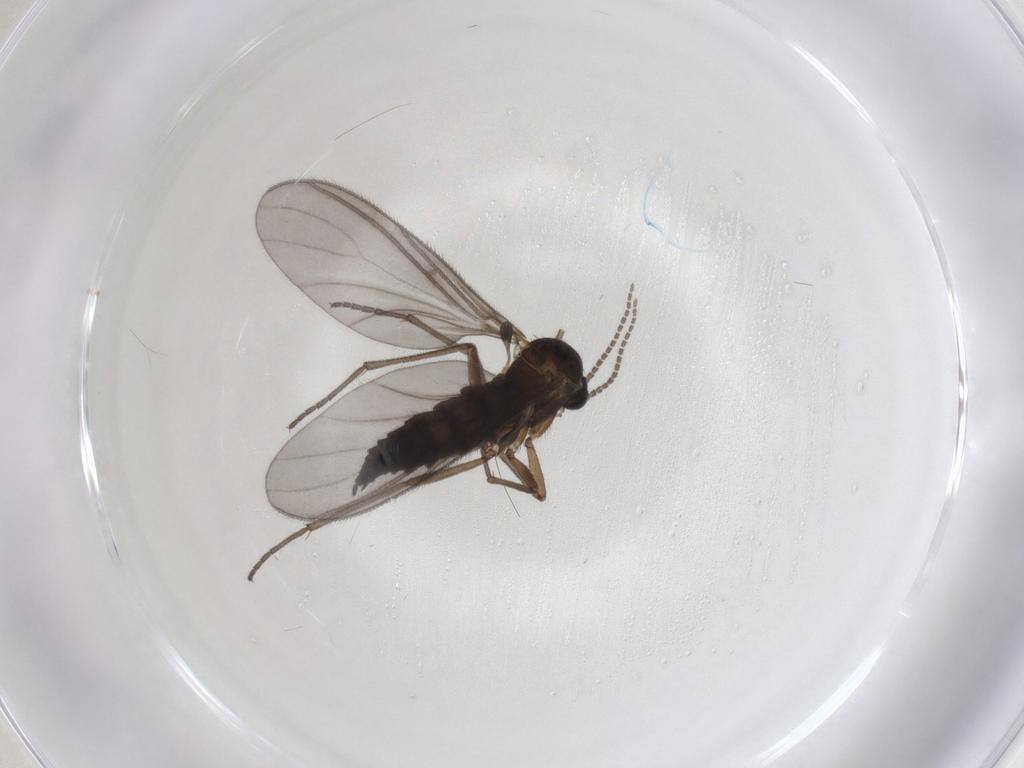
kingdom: Animalia
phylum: Arthropoda
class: Insecta
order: Diptera
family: Sciaridae
